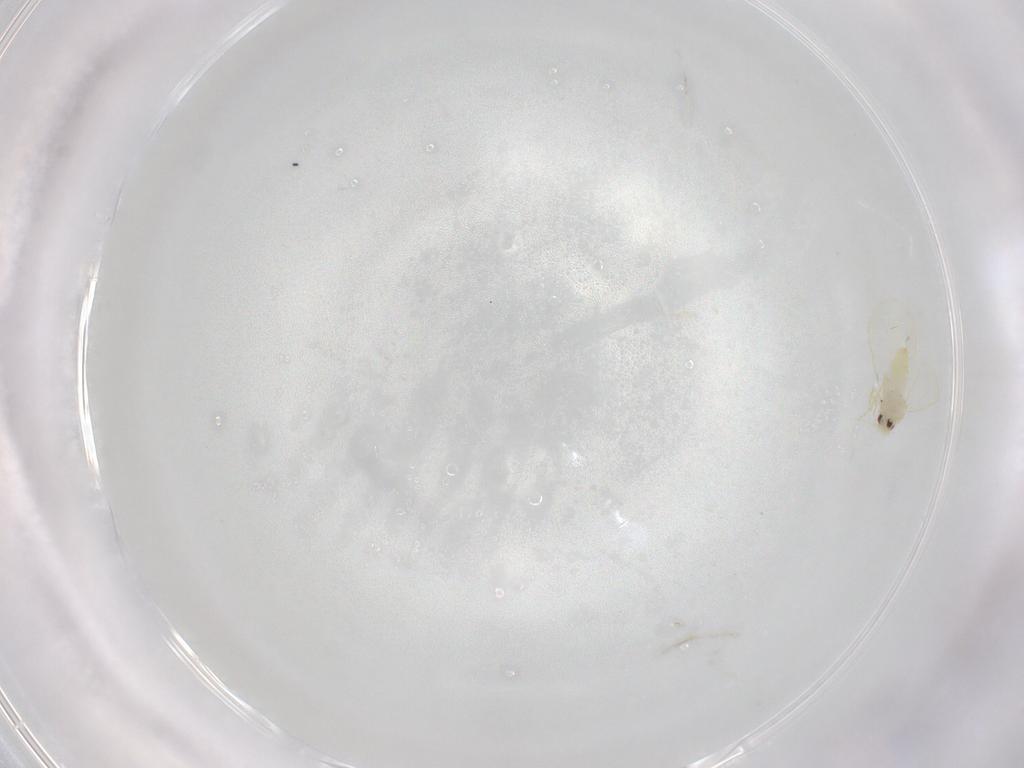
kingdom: Animalia
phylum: Arthropoda
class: Insecta
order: Hemiptera
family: Aleyrodidae
